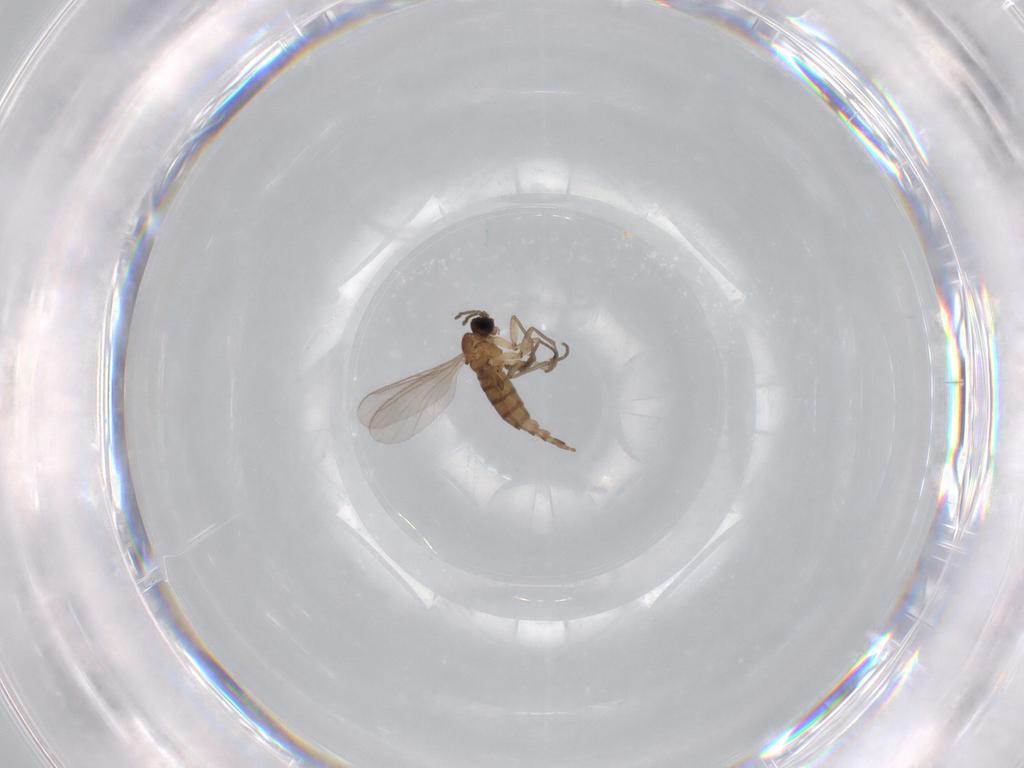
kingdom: Animalia
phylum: Arthropoda
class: Insecta
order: Diptera
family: Sciaridae
